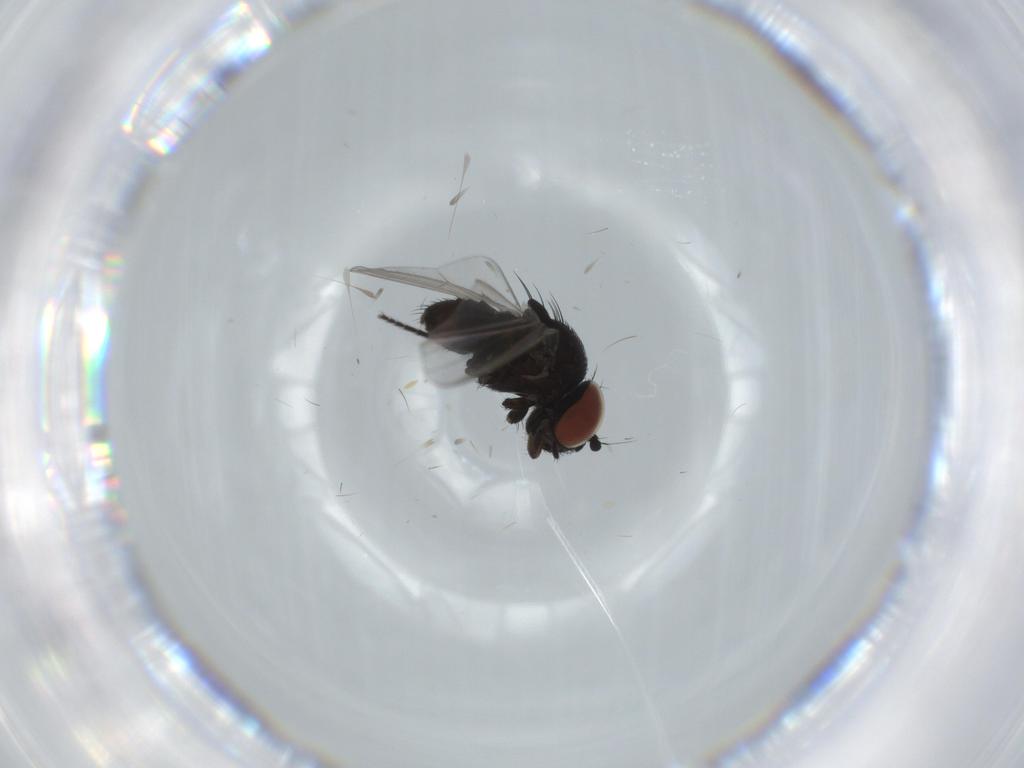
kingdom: Animalia
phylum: Arthropoda
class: Insecta
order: Diptera
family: Milichiidae
